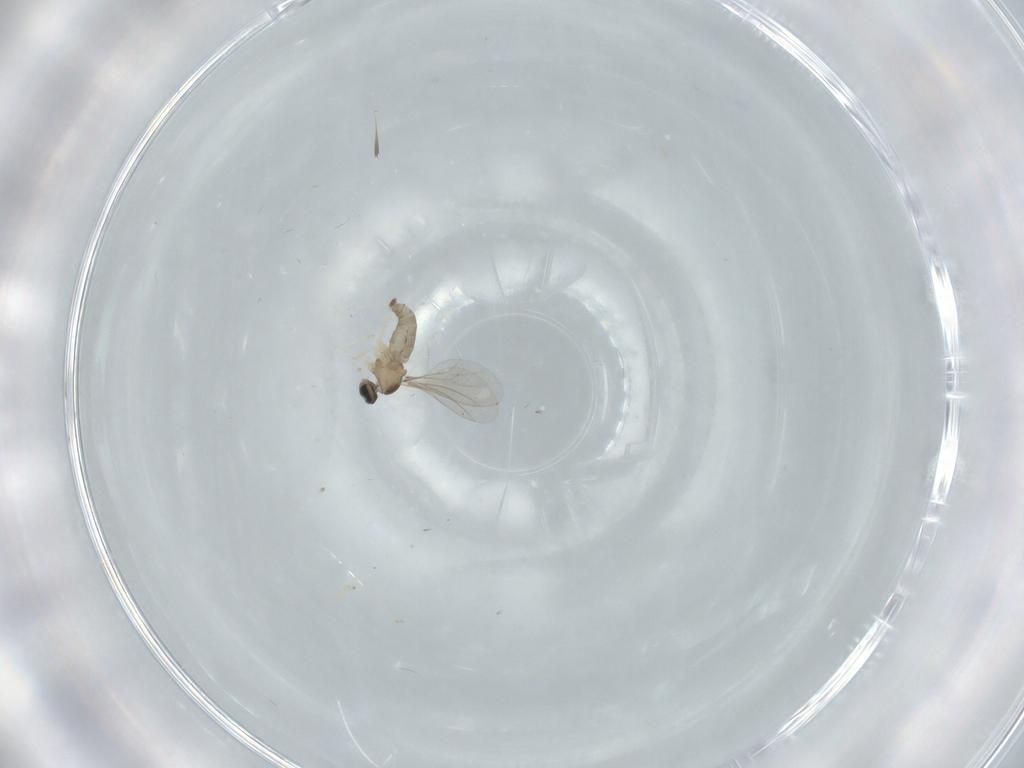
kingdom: Animalia
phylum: Arthropoda
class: Insecta
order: Diptera
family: Cecidomyiidae
